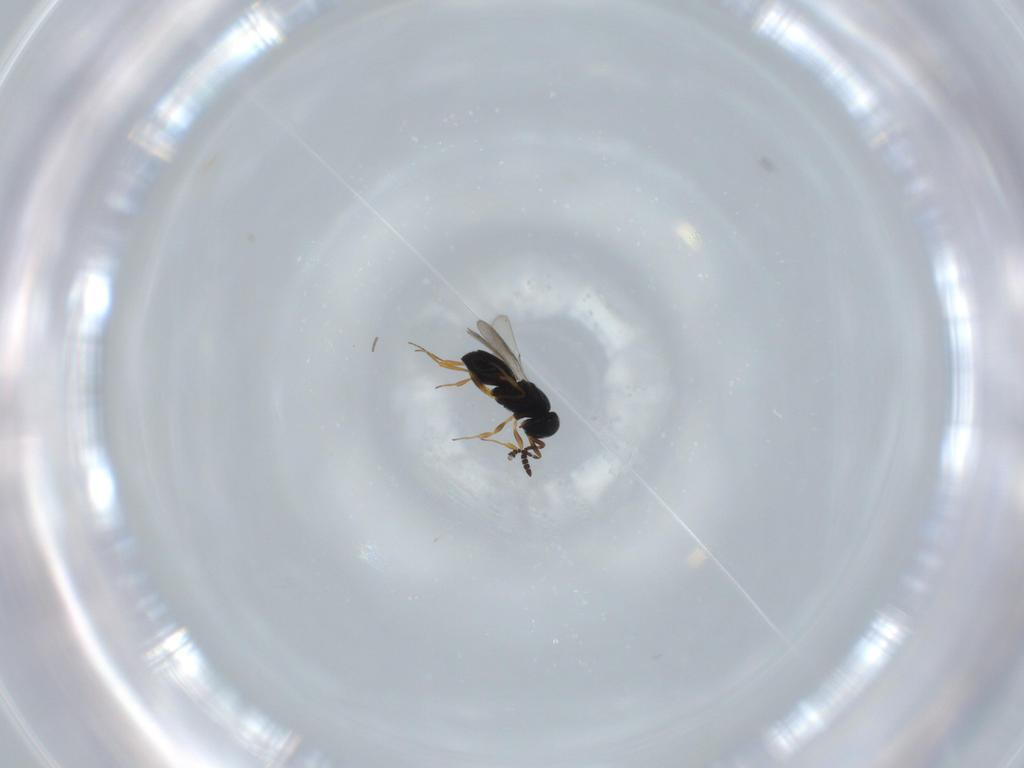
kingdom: Animalia
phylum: Arthropoda
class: Insecta
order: Hymenoptera
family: Scelionidae
